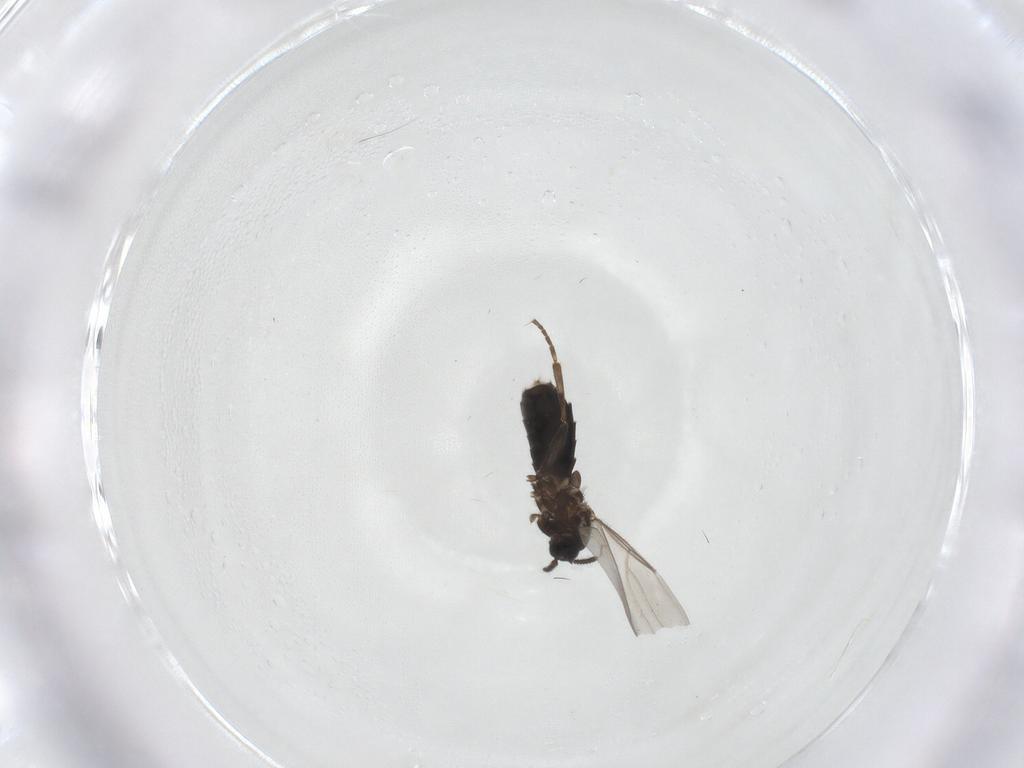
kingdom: Animalia
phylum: Arthropoda
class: Insecta
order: Diptera
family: Scatopsidae
